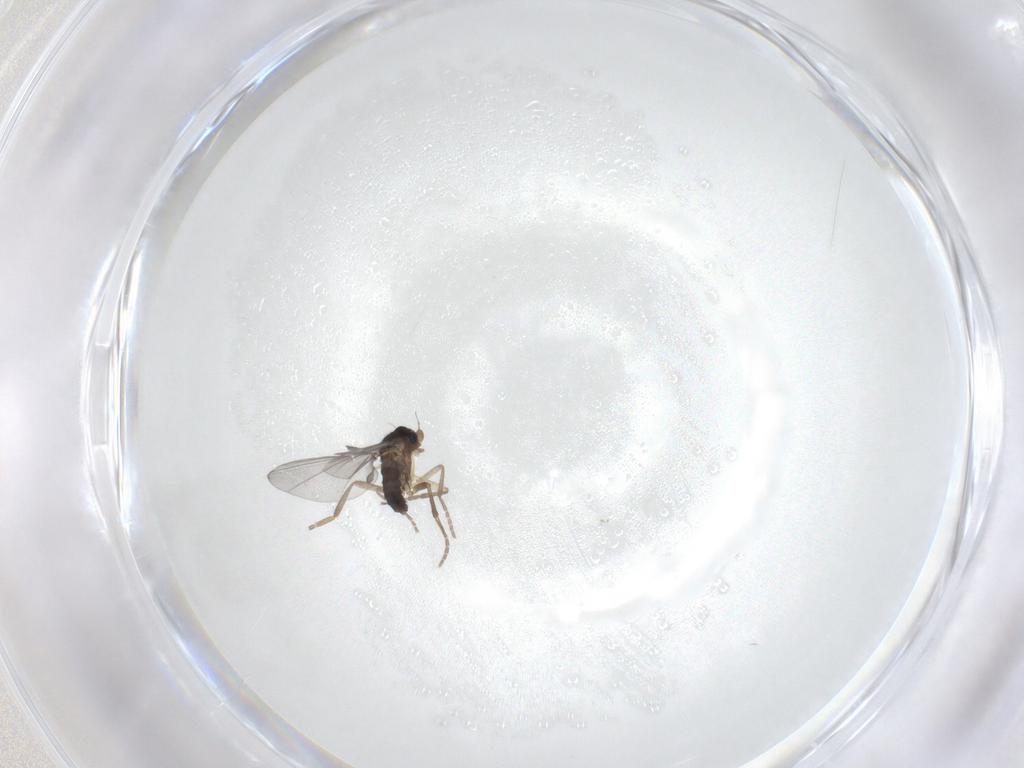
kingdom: Animalia
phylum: Arthropoda
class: Insecta
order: Diptera
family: Phoridae
